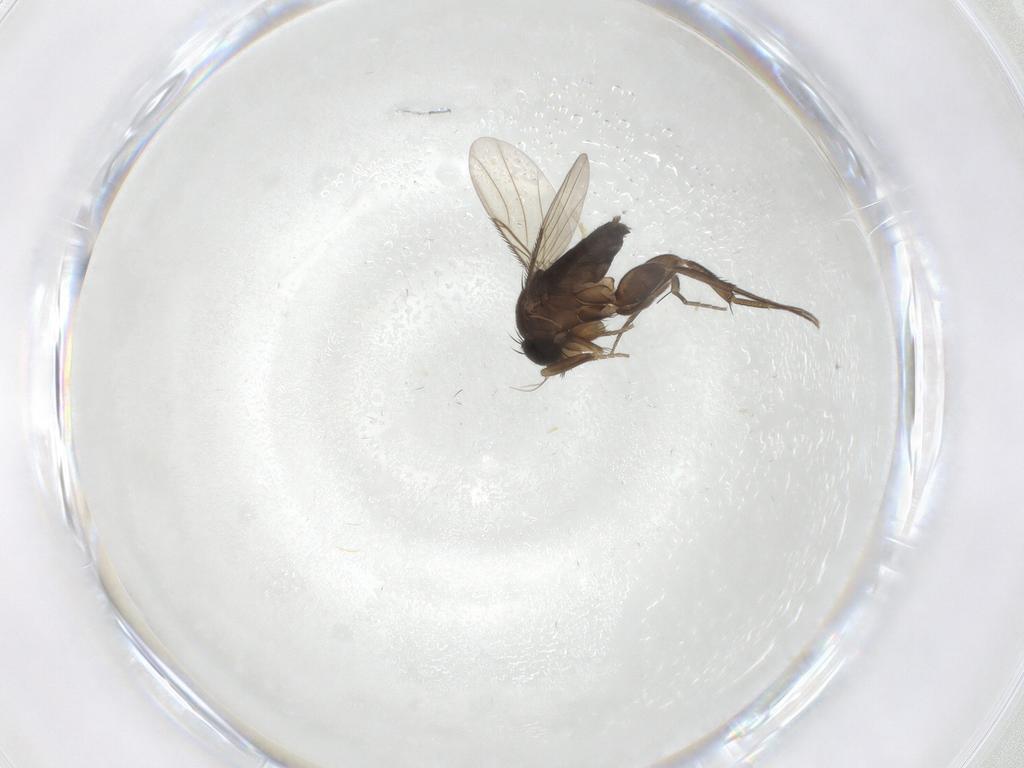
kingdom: Animalia
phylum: Arthropoda
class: Insecta
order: Diptera
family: Phoridae
